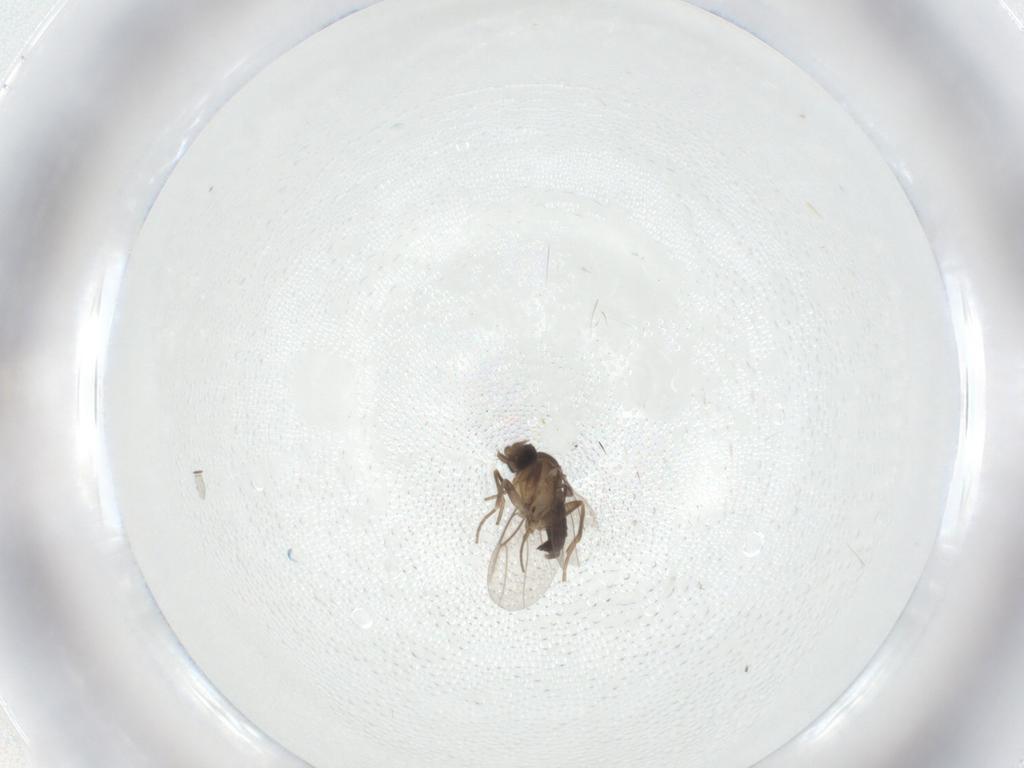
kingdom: Animalia
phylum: Arthropoda
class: Insecta
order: Diptera
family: Phoridae
